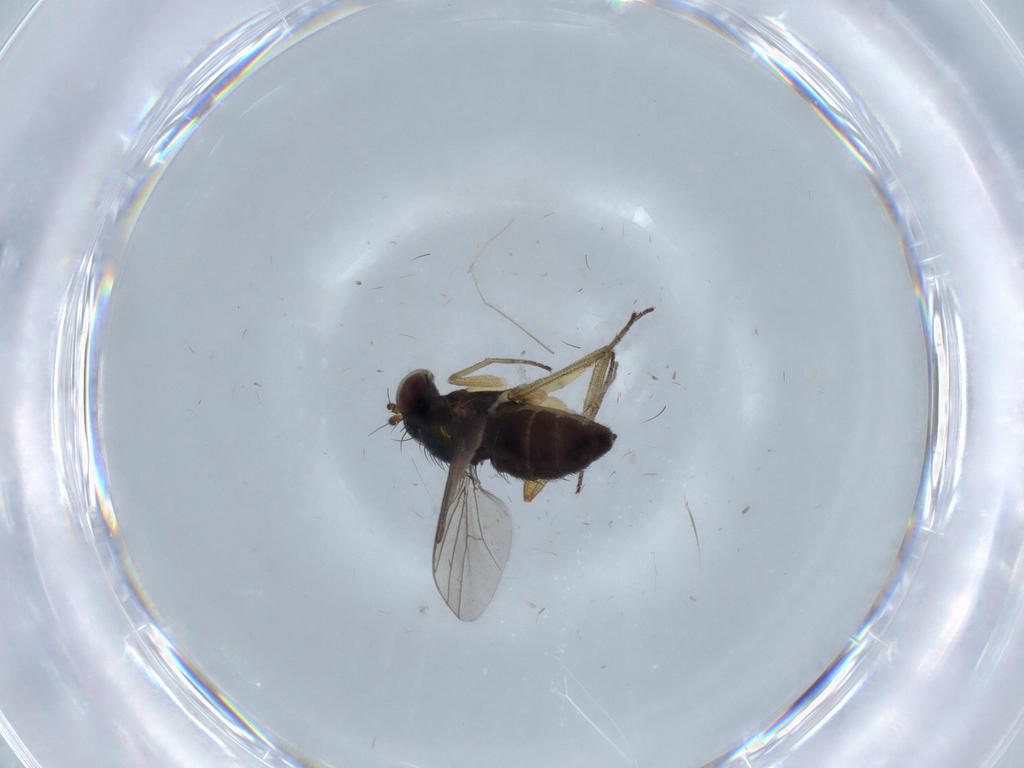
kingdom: Animalia
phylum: Arthropoda
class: Insecta
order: Diptera
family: Dolichopodidae
